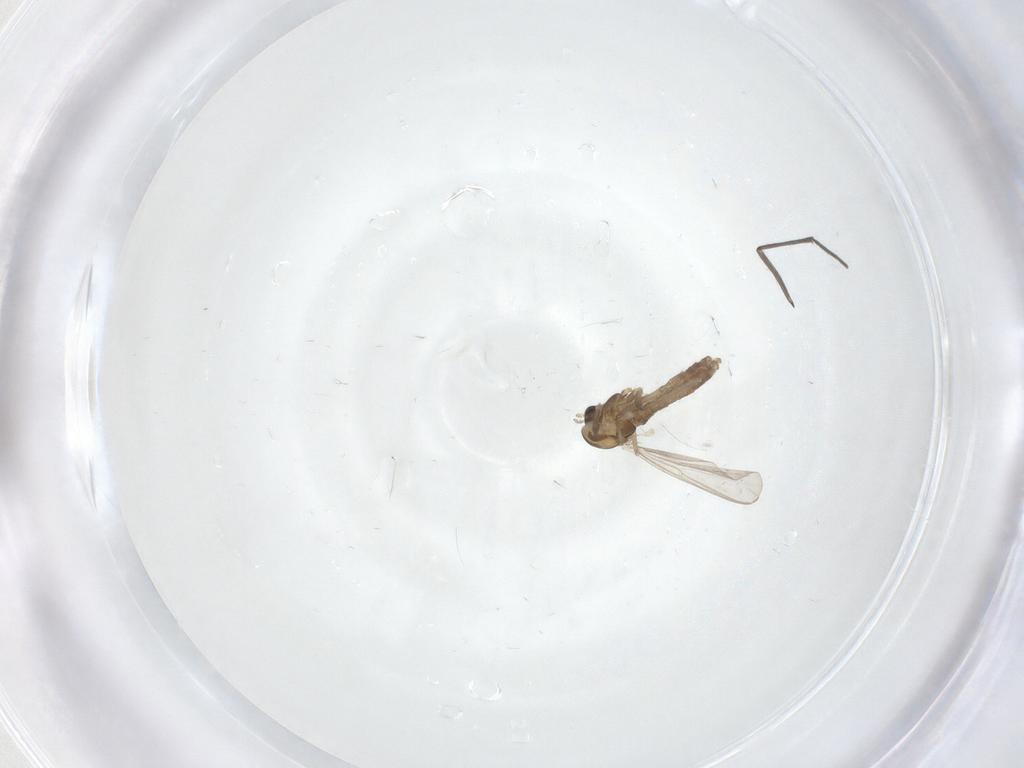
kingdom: Animalia
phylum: Arthropoda
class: Insecta
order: Diptera
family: Chironomidae
